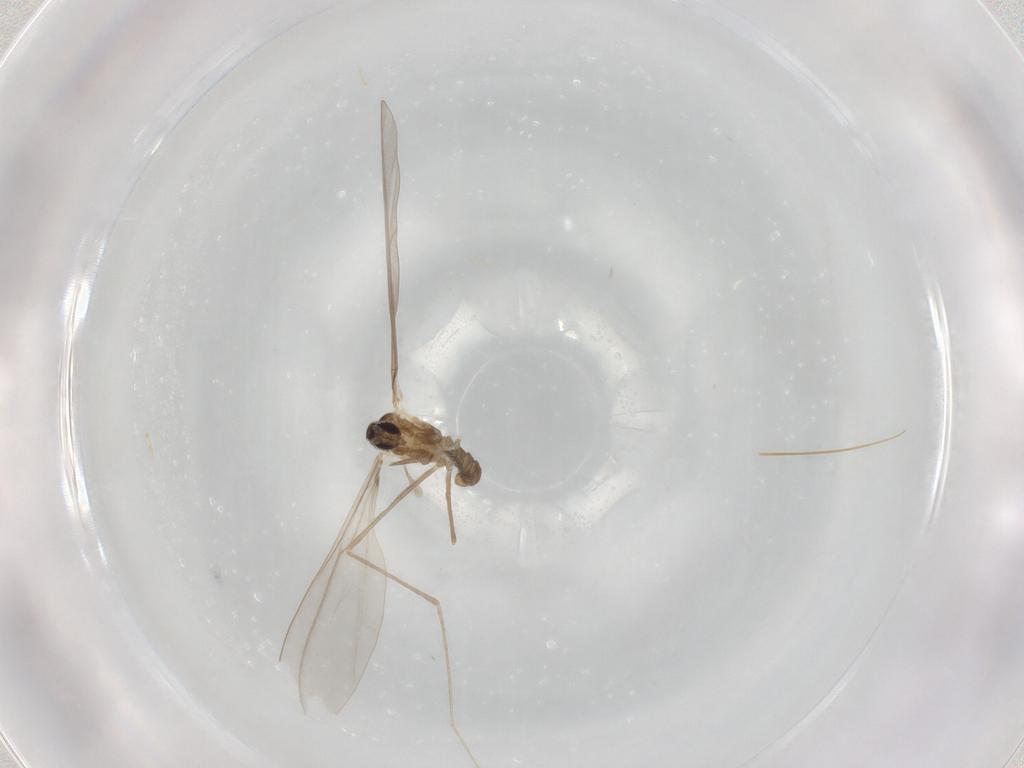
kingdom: Animalia
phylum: Arthropoda
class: Insecta
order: Diptera
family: Cecidomyiidae
